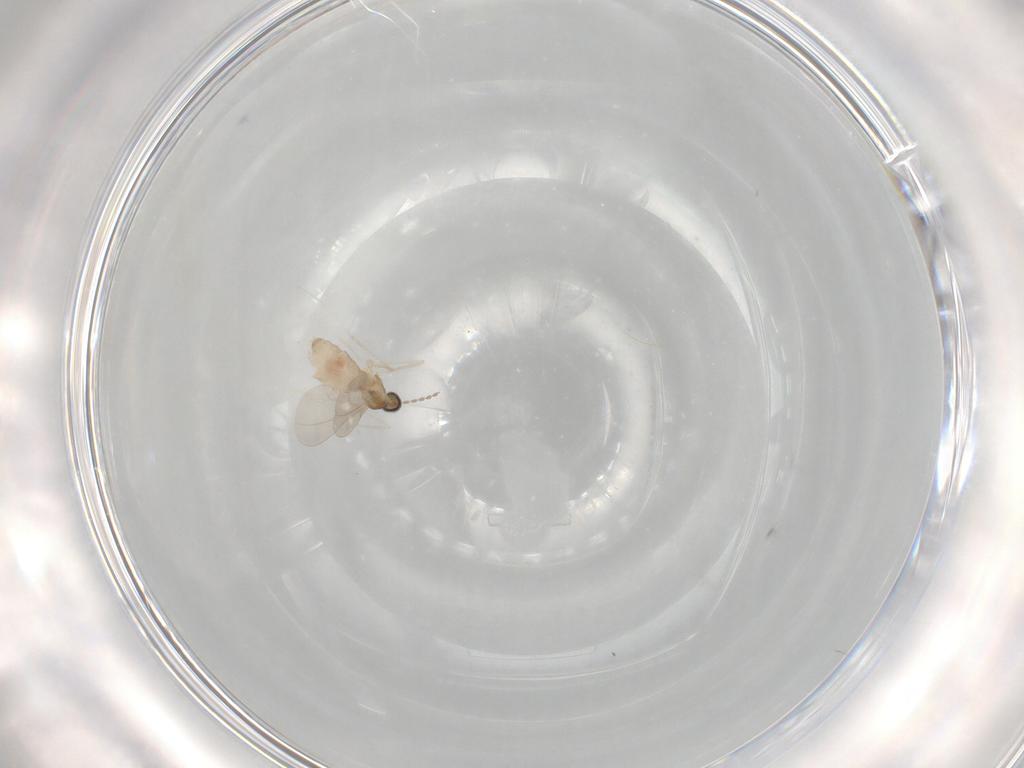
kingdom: Animalia
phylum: Arthropoda
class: Insecta
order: Diptera
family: Cecidomyiidae
